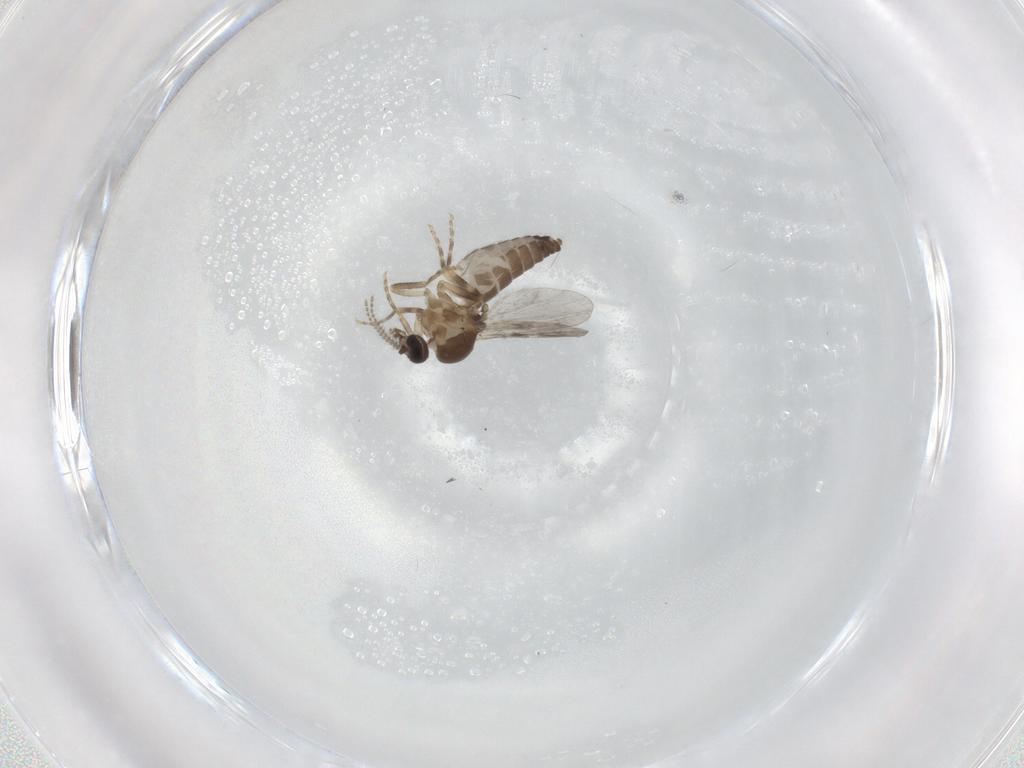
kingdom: Animalia
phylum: Arthropoda
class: Insecta
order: Diptera
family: Ceratopogonidae
